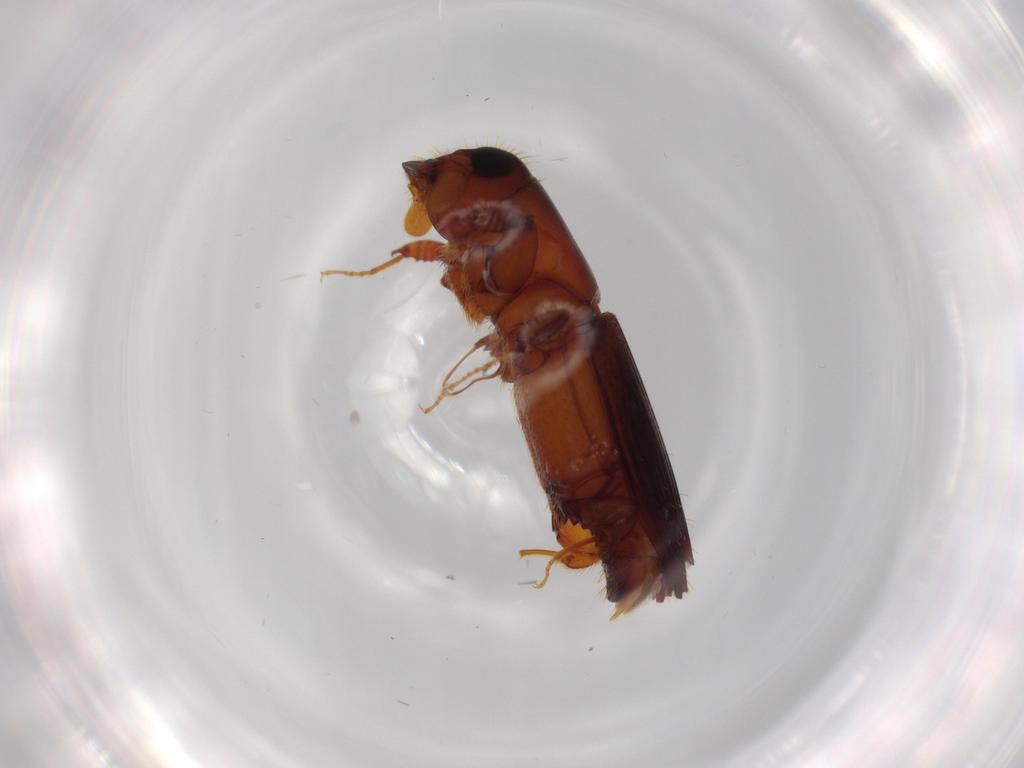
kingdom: Animalia
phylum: Arthropoda
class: Insecta
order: Coleoptera
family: Curculionidae
